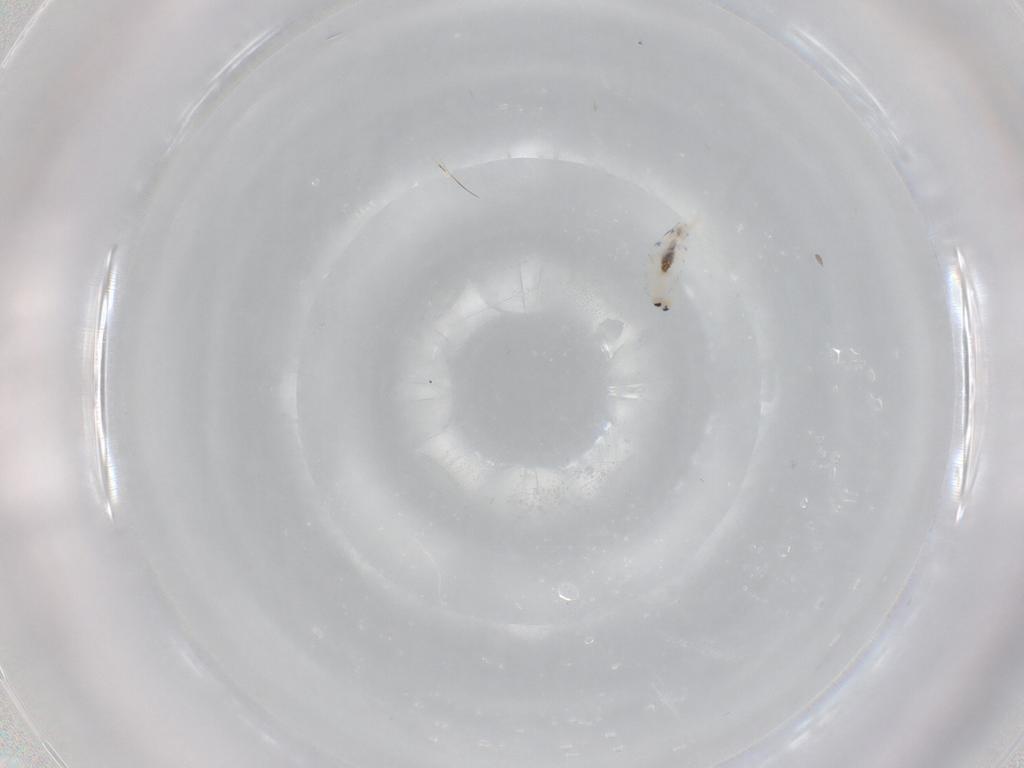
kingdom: Animalia
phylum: Arthropoda
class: Collembola
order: Entomobryomorpha
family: Entomobryidae
